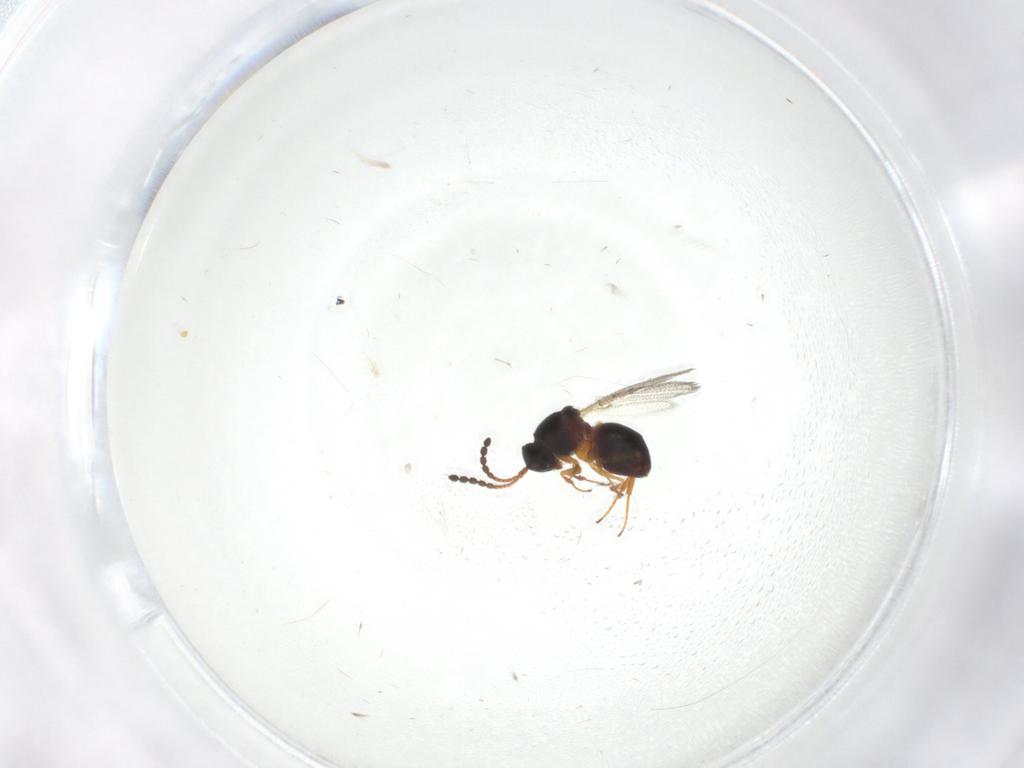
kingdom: Animalia
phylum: Arthropoda
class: Insecta
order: Hymenoptera
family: Figitidae
